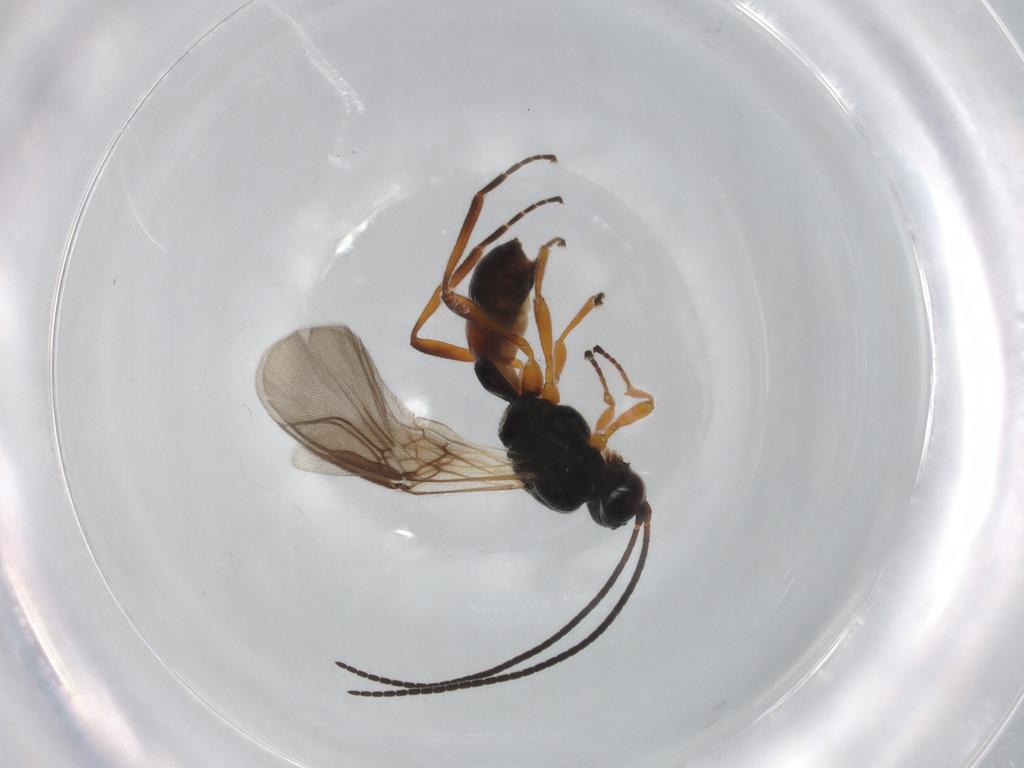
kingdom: Animalia
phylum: Arthropoda
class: Insecta
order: Hymenoptera
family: Braconidae
